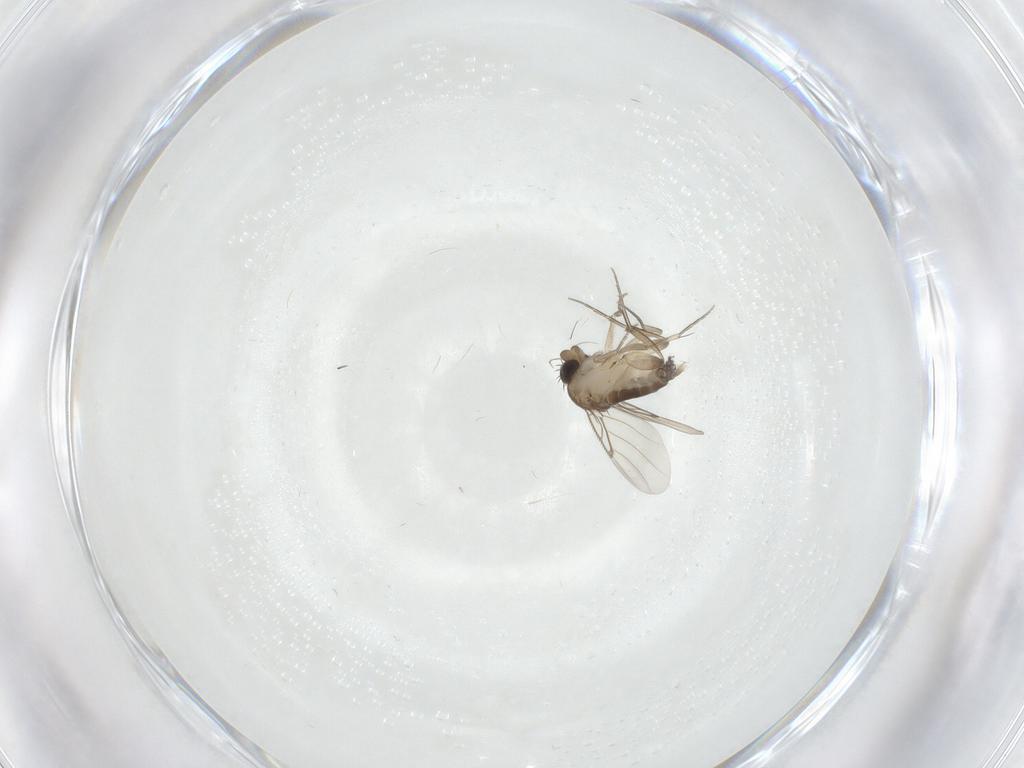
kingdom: Animalia
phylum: Arthropoda
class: Insecta
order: Diptera
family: Phoridae
